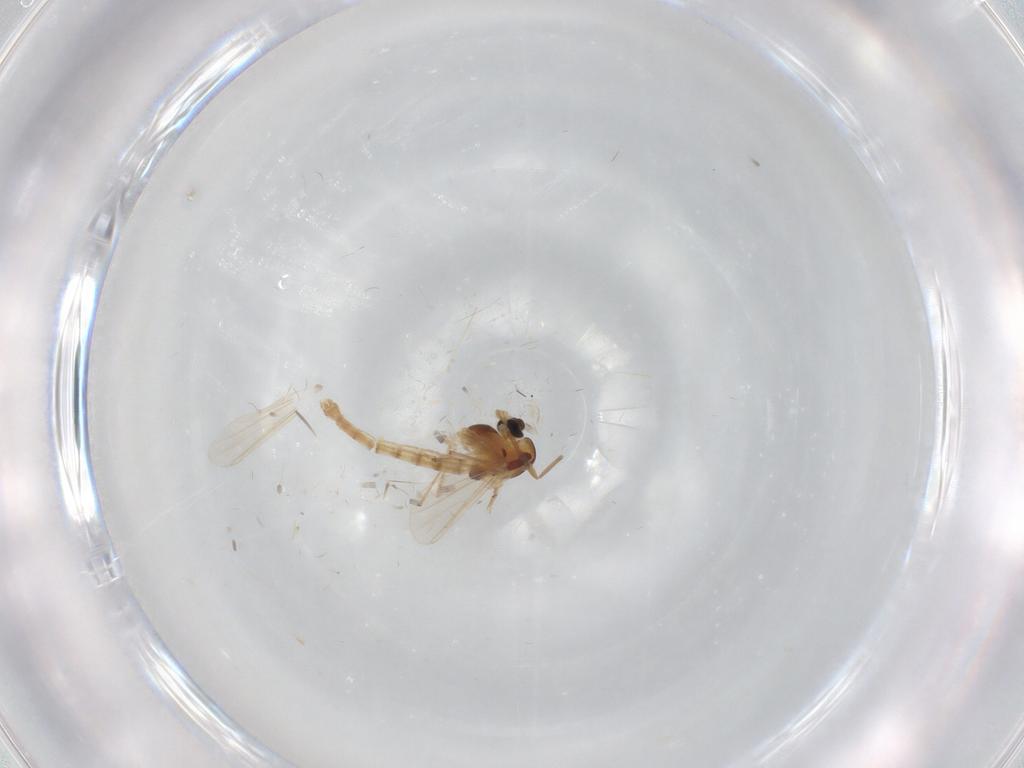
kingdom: Animalia
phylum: Arthropoda
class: Insecta
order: Diptera
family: Chironomidae
